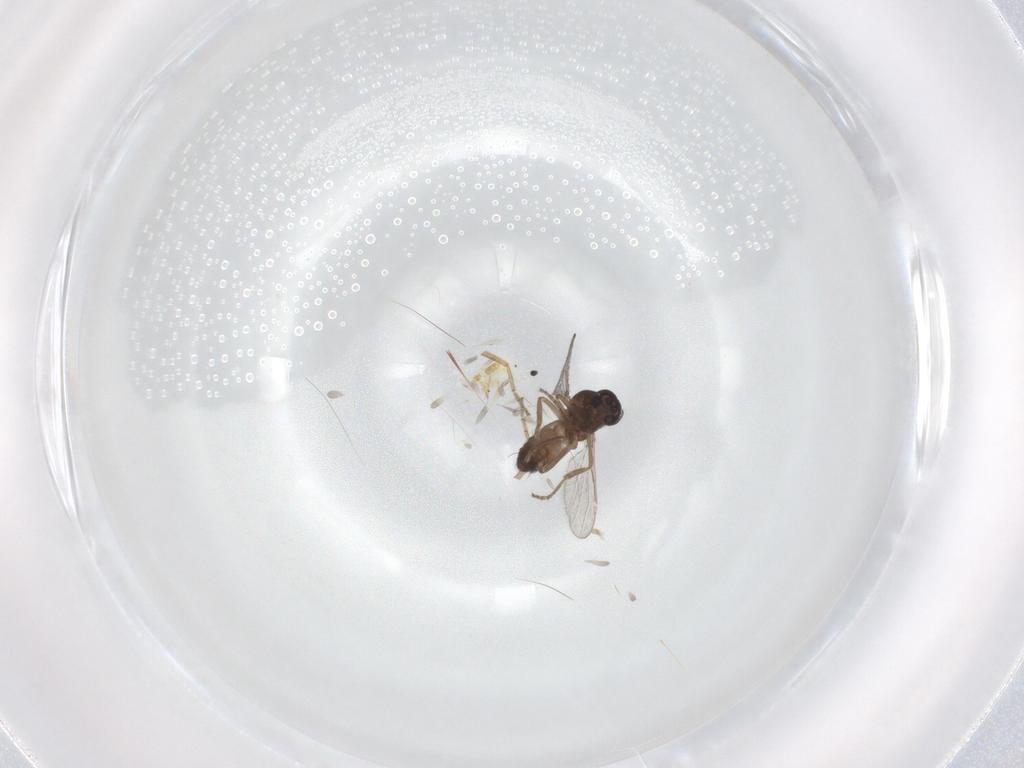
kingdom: Animalia
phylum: Arthropoda
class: Insecta
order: Diptera
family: Ceratopogonidae
